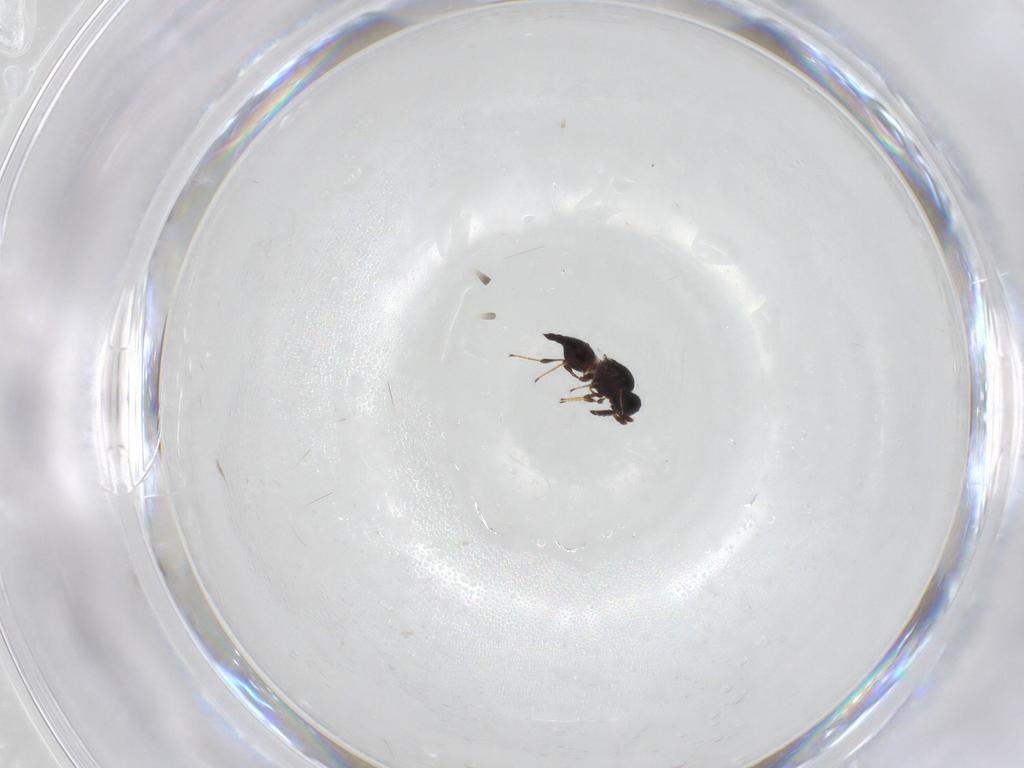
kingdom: Animalia
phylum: Arthropoda
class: Insecta
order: Hymenoptera
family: Platygastridae
